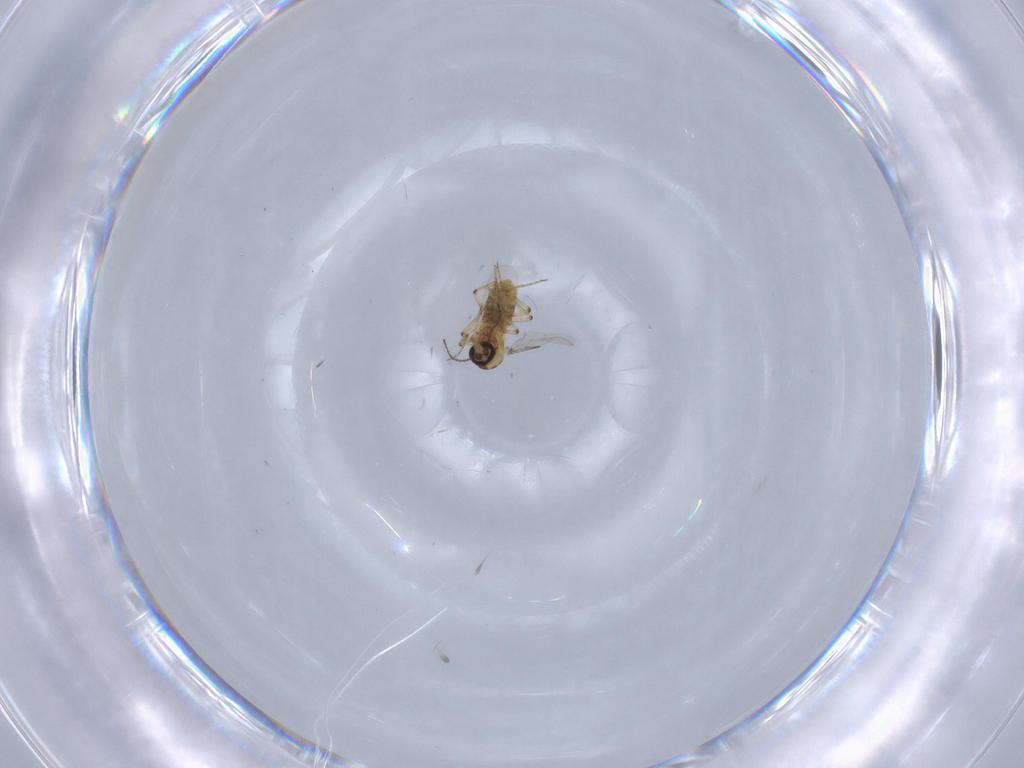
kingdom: Animalia
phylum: Arthropoda
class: Insecta
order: Diptera
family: Ceratopogonidae
